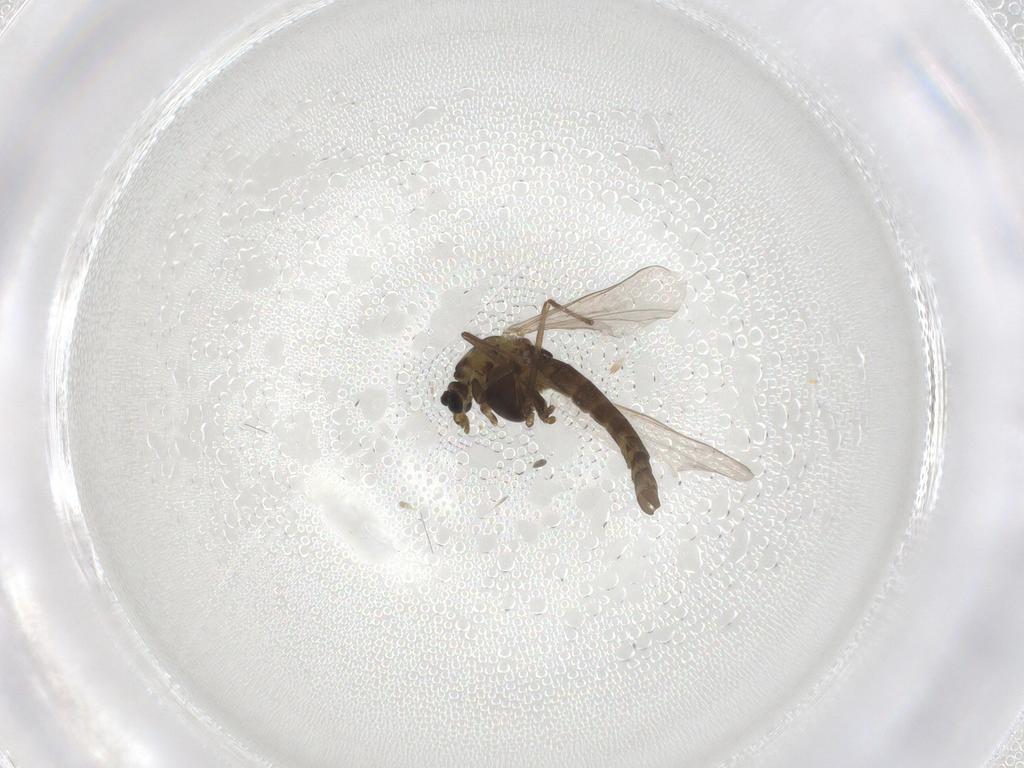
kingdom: Animalia
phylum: Arthropoda
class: Insecta
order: Diptera
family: Chironomidae
